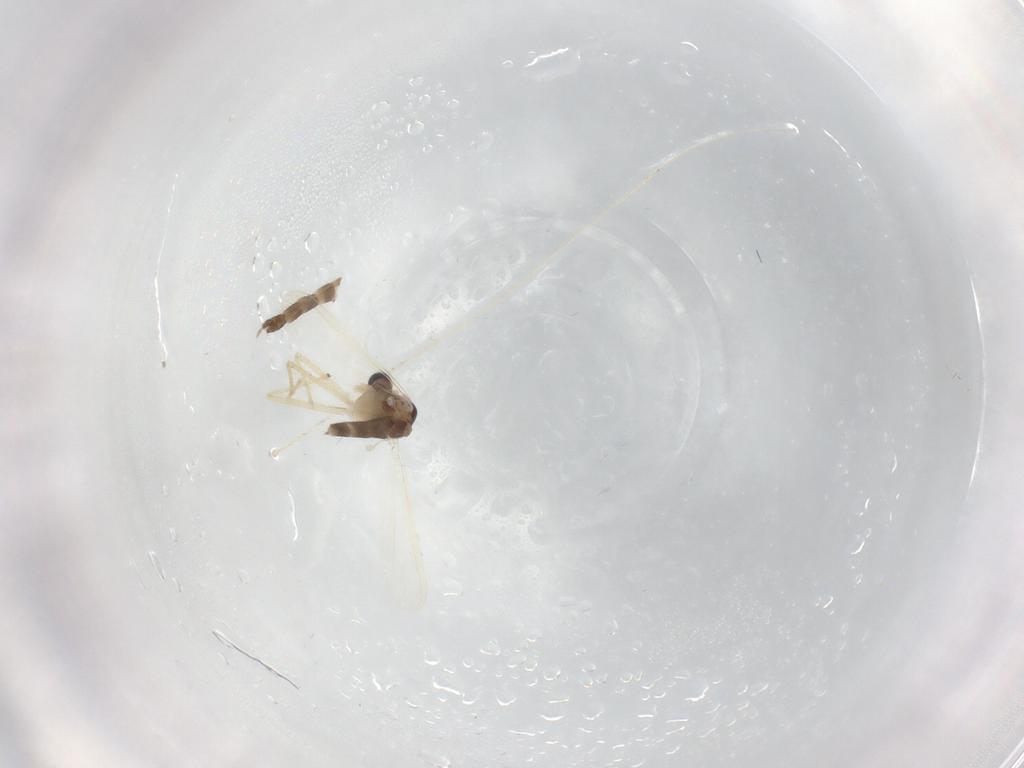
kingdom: Animalia
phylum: Arthropoda
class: Insecta
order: Diptera
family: Chironomidae
